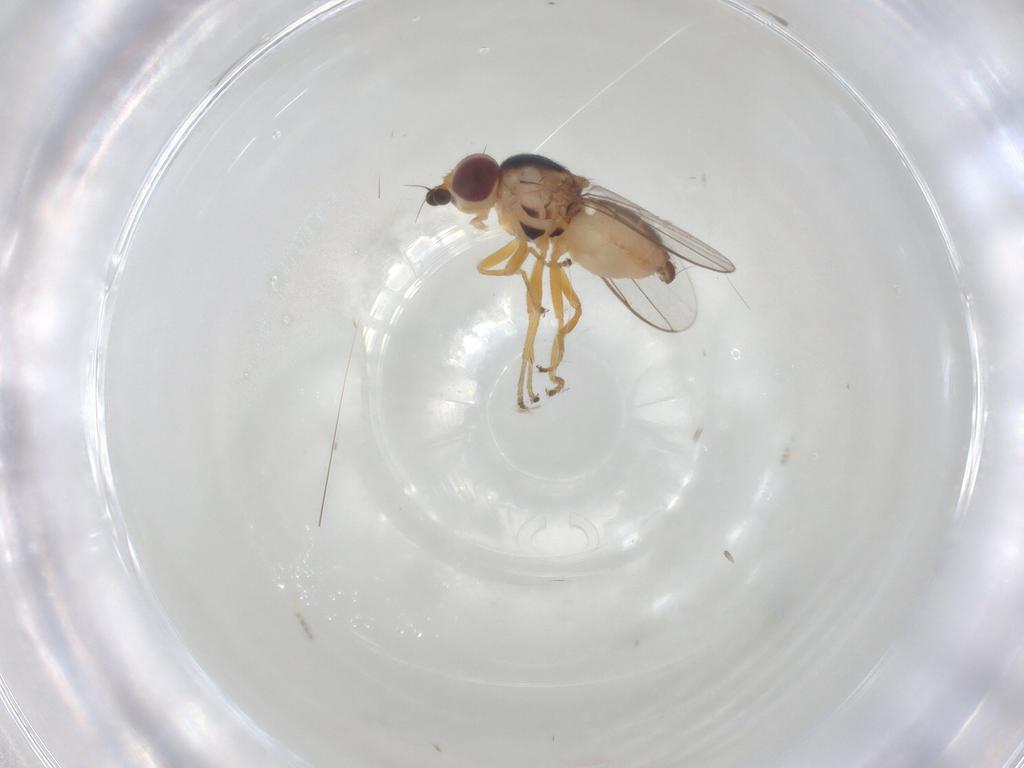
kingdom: Animalia
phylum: Arthropoda
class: Insecta
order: Diptera
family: Chloropidae
